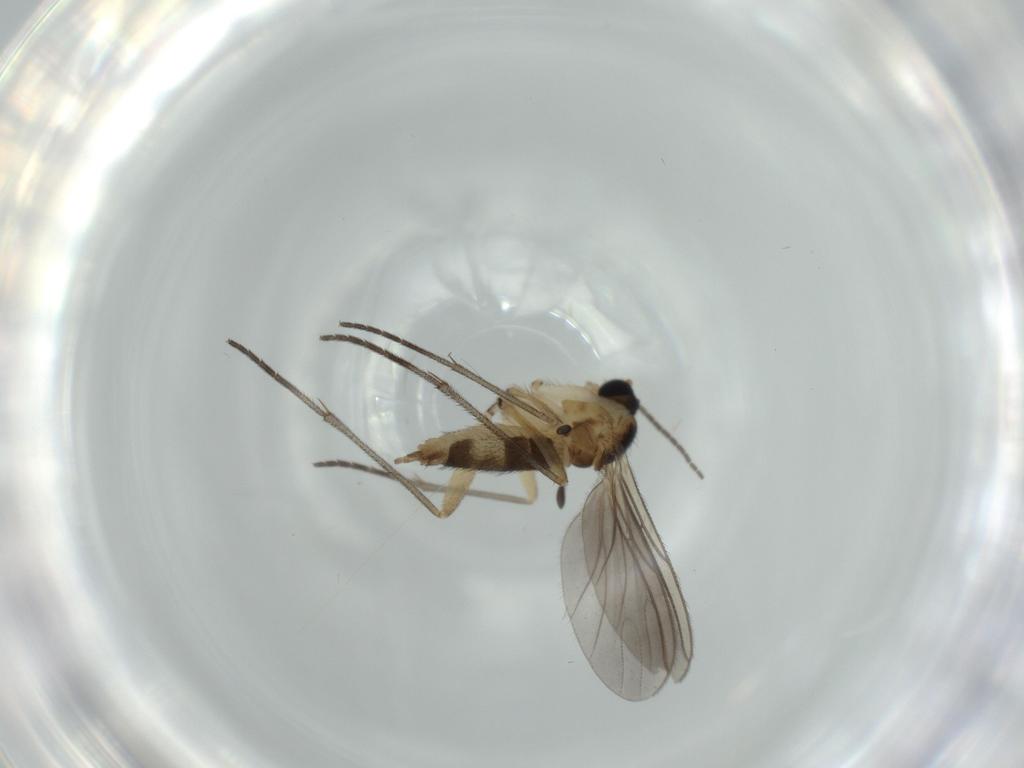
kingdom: Animalia
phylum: Arthropoda
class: Insecta
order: Diptera
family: Sciaridae
